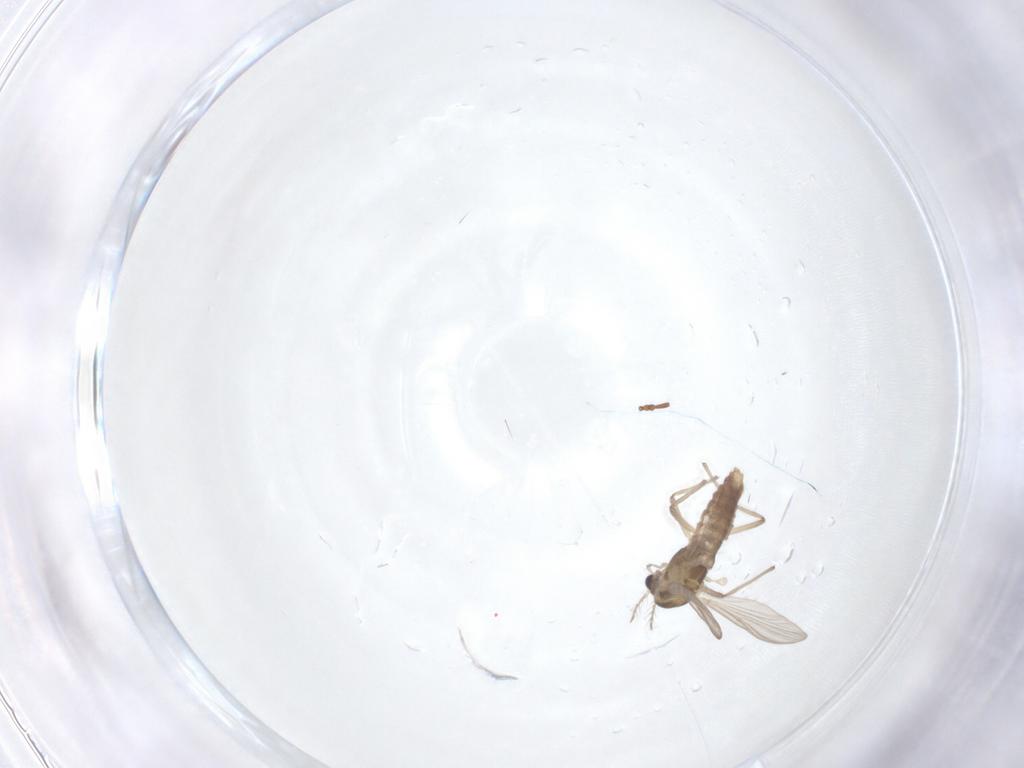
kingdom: Animalia
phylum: Arthropoda
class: Insecta
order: Diptera
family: Chironomidae
